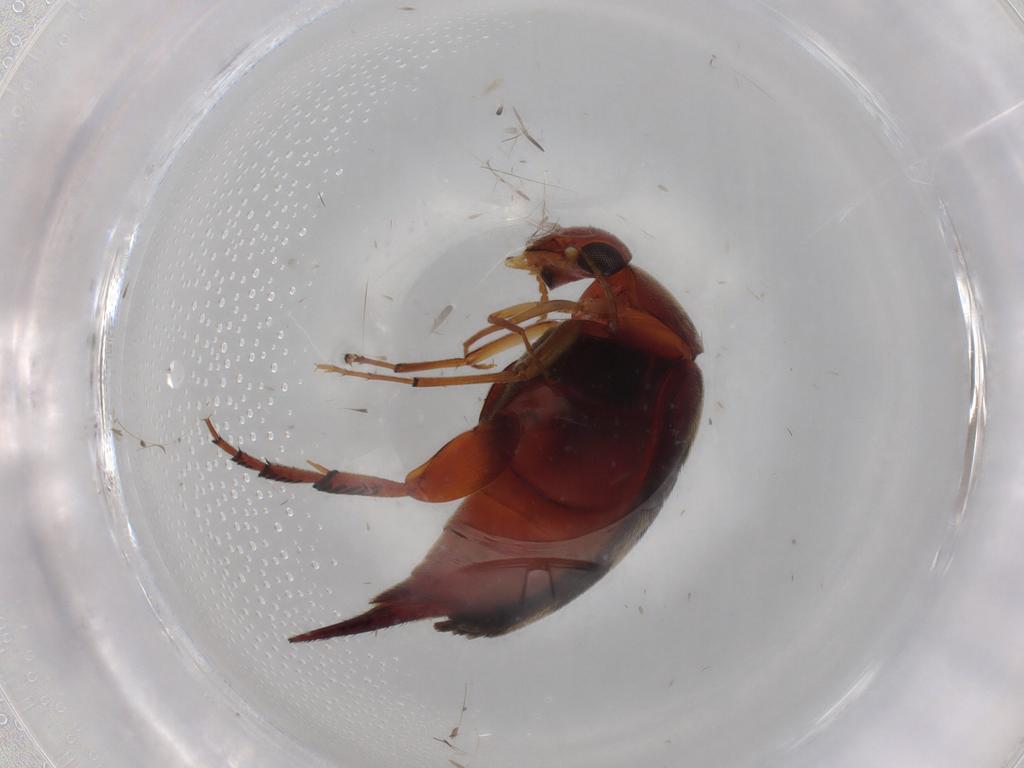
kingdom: Animalia
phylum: Arthropoda
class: Insecta
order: Coleoptera
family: Mordellidae
